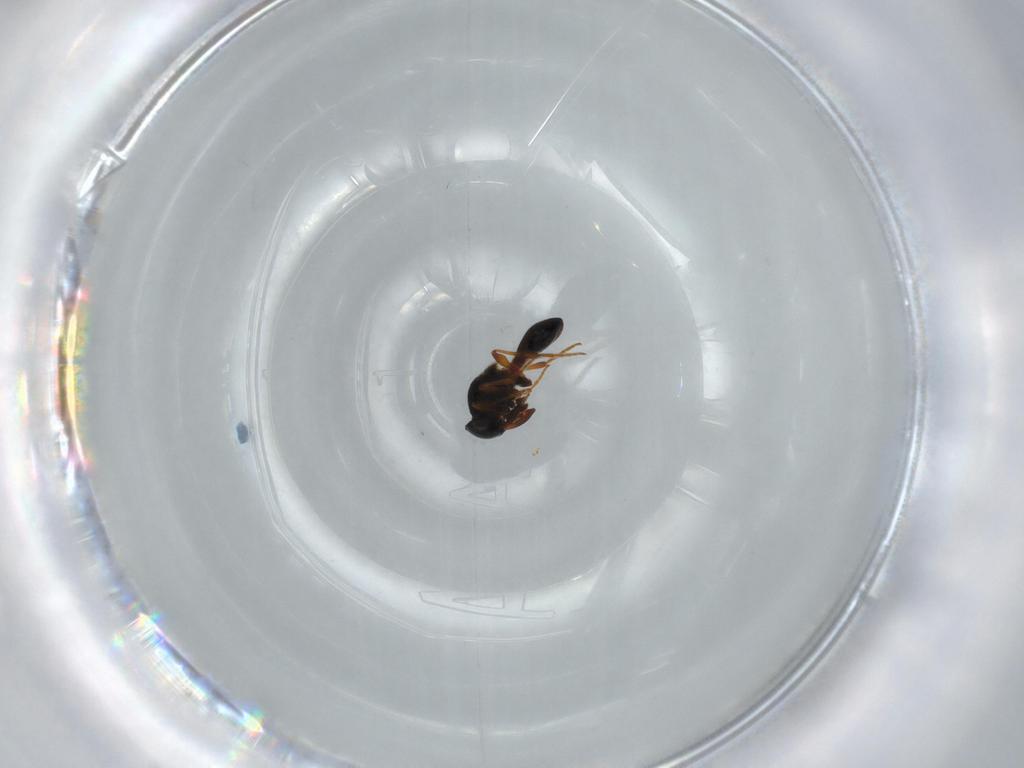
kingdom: Animalia
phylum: Arthropoda
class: Insecta
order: Hymenoptera
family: Platygastridae
